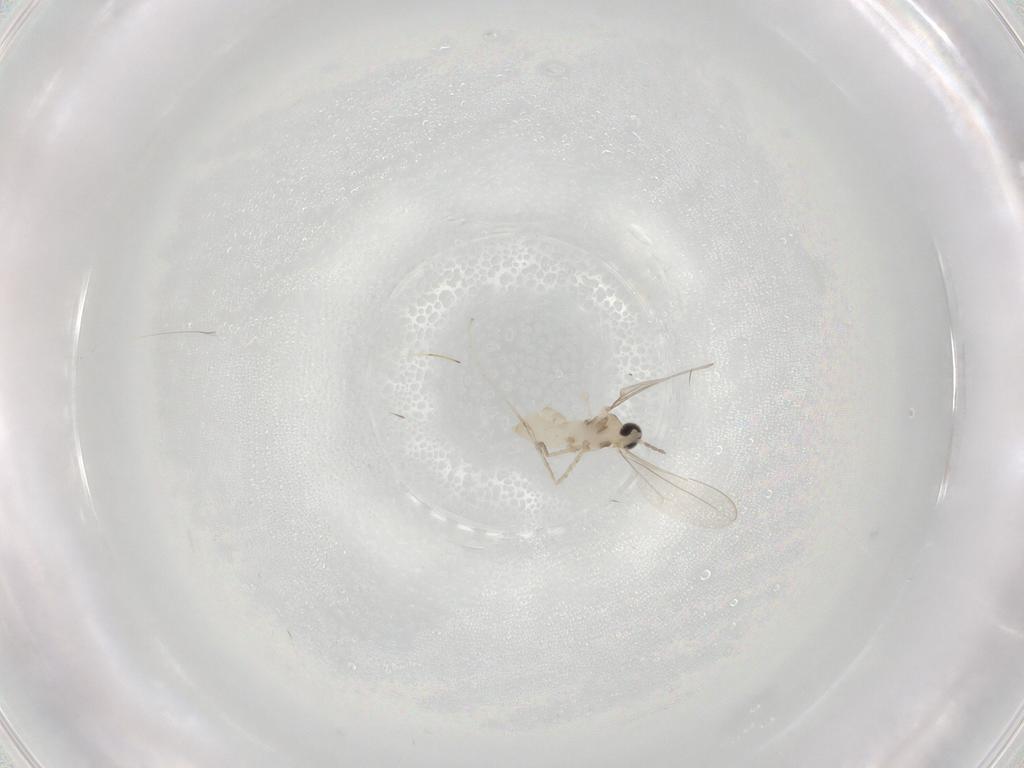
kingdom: Animalia
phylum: Arthropoda
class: Insecta
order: Diptera
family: Cecidomyiidae
